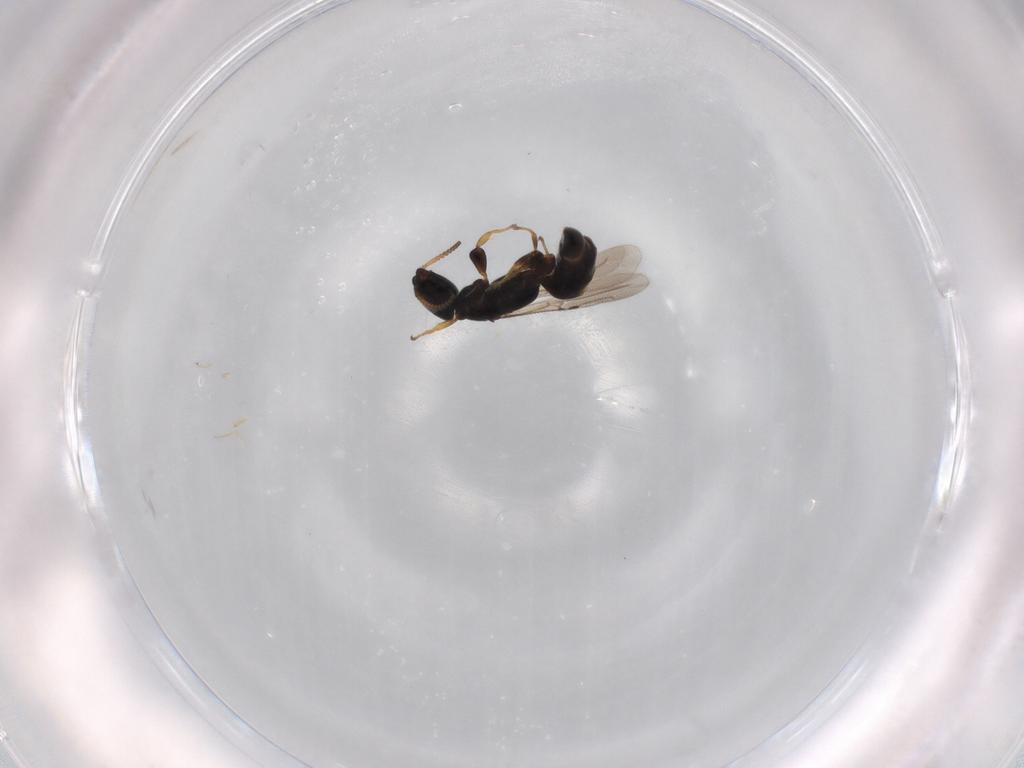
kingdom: Animalia
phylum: Arthropoda
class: Insecta
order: Hymenoptera
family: Bethylidae
